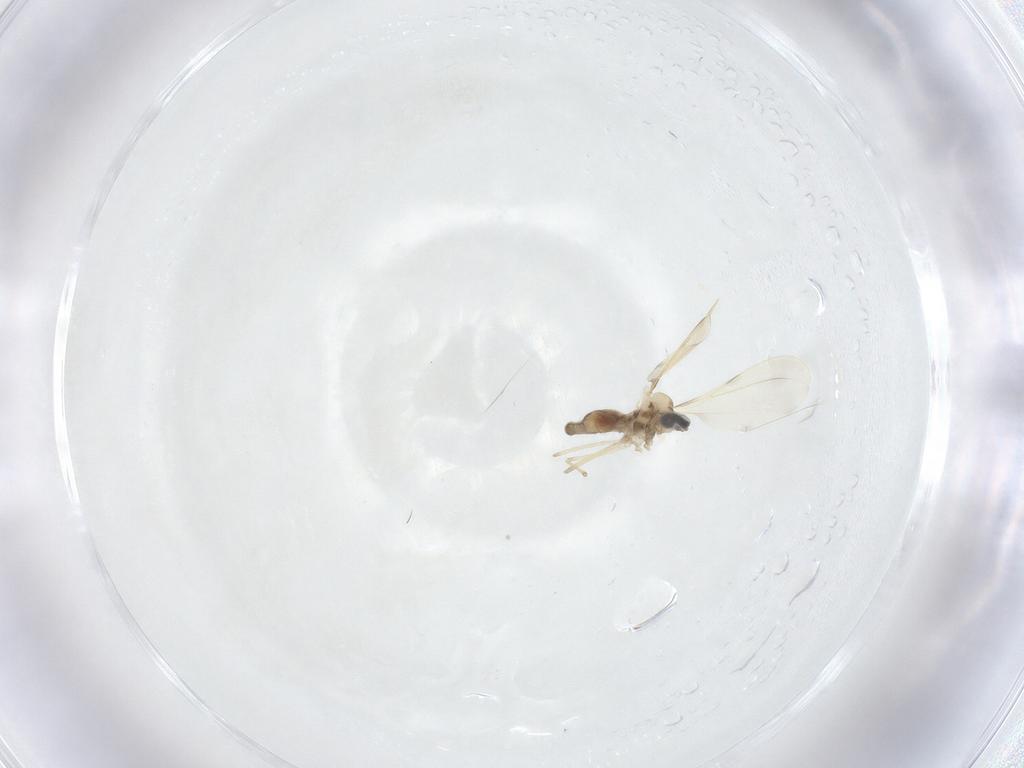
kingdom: Animalia
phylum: Arthropoda
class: Insecta
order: Diptera
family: Cecidomyiidae
